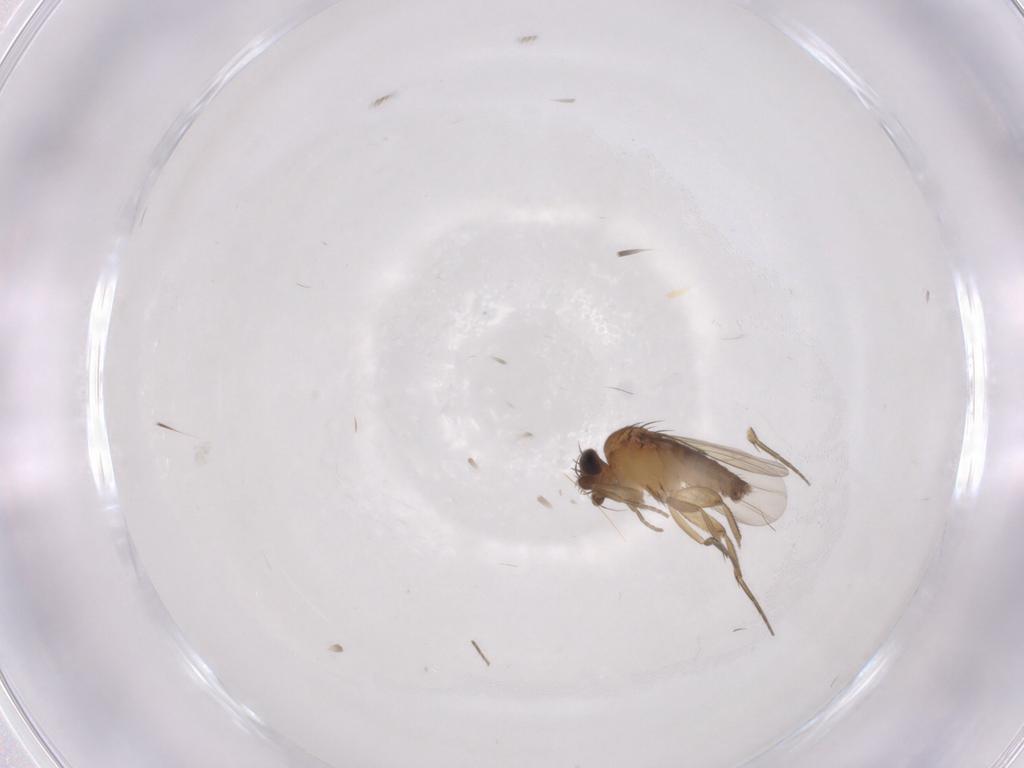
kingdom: Animalia
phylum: Arthropoda
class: Insecta
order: Diptera
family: Phoridae
